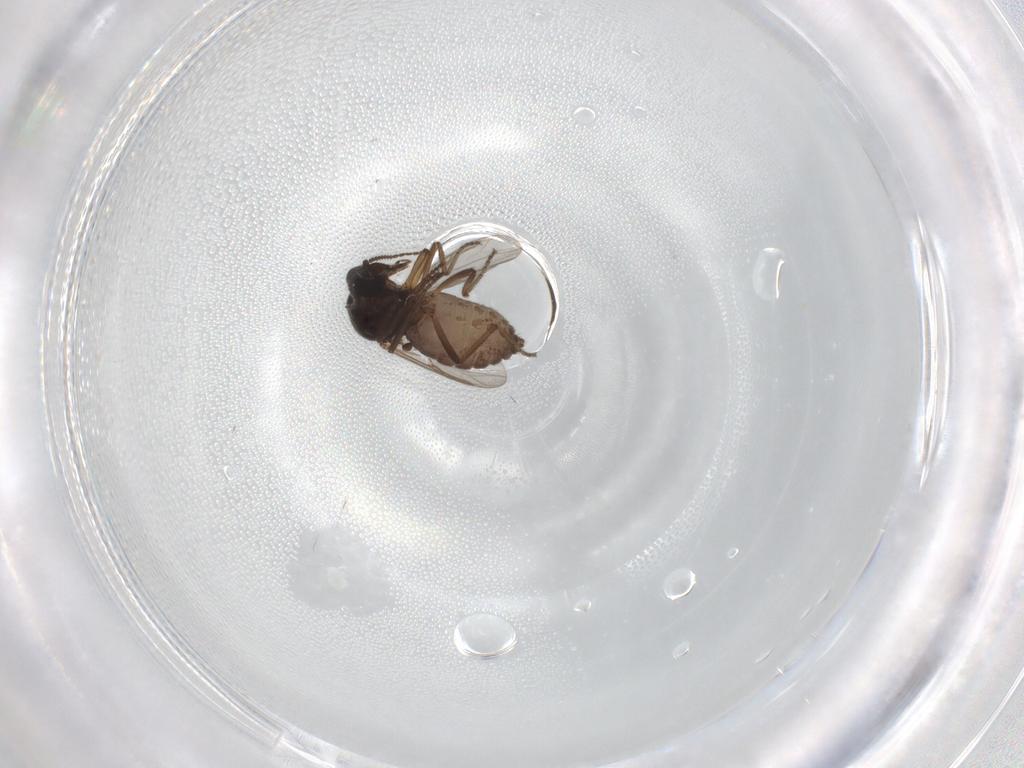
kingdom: Animalia
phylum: Arthropoda
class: Insecta
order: Diptera
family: Ceratopogonidae
